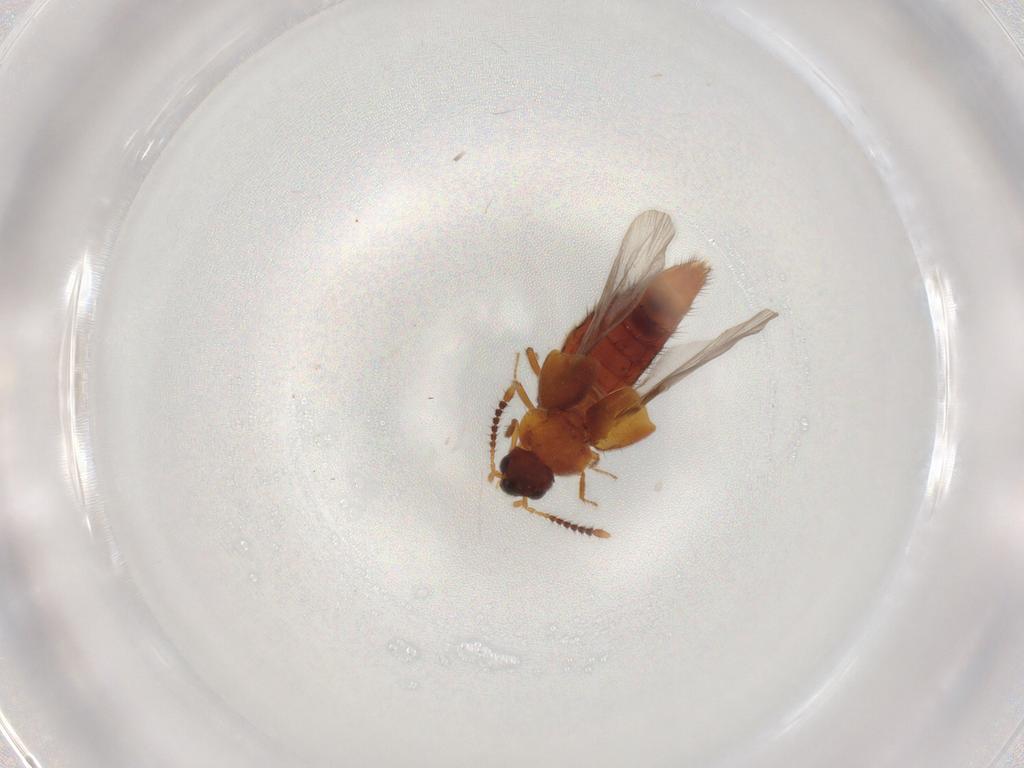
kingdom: Animalia
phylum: Arthropoda
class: Insecta
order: Coleoptera
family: Staphylinidae
